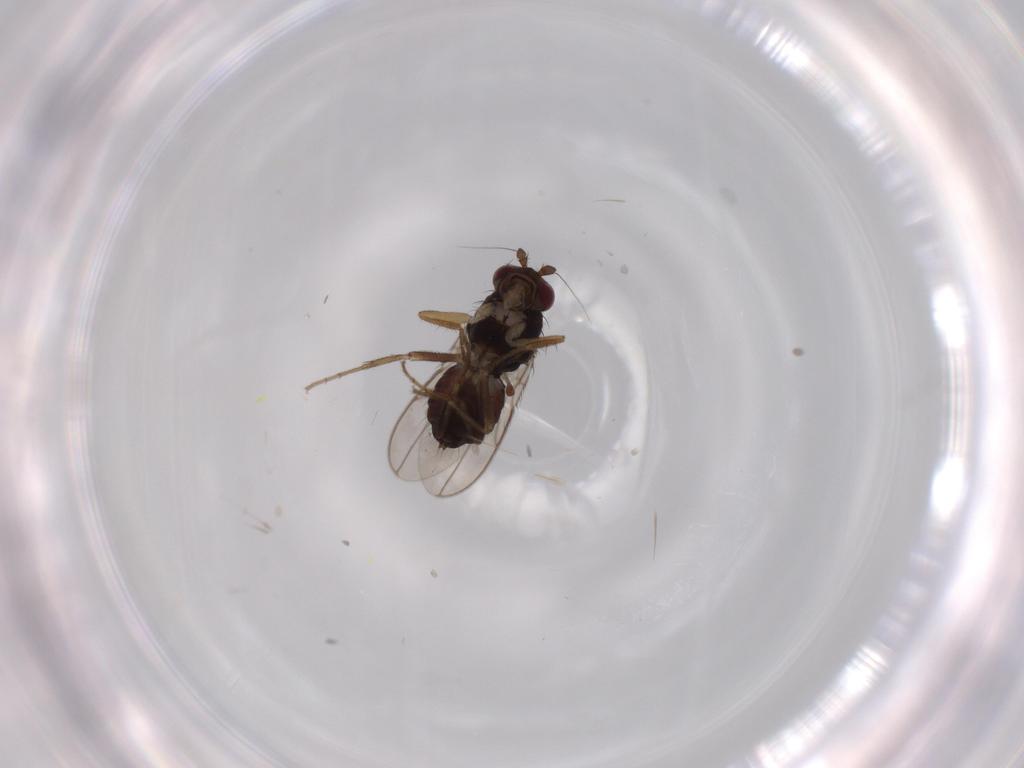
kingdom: Animalia
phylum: Arthropoda
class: Insecta
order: Diptera
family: Sphaeroceridae
